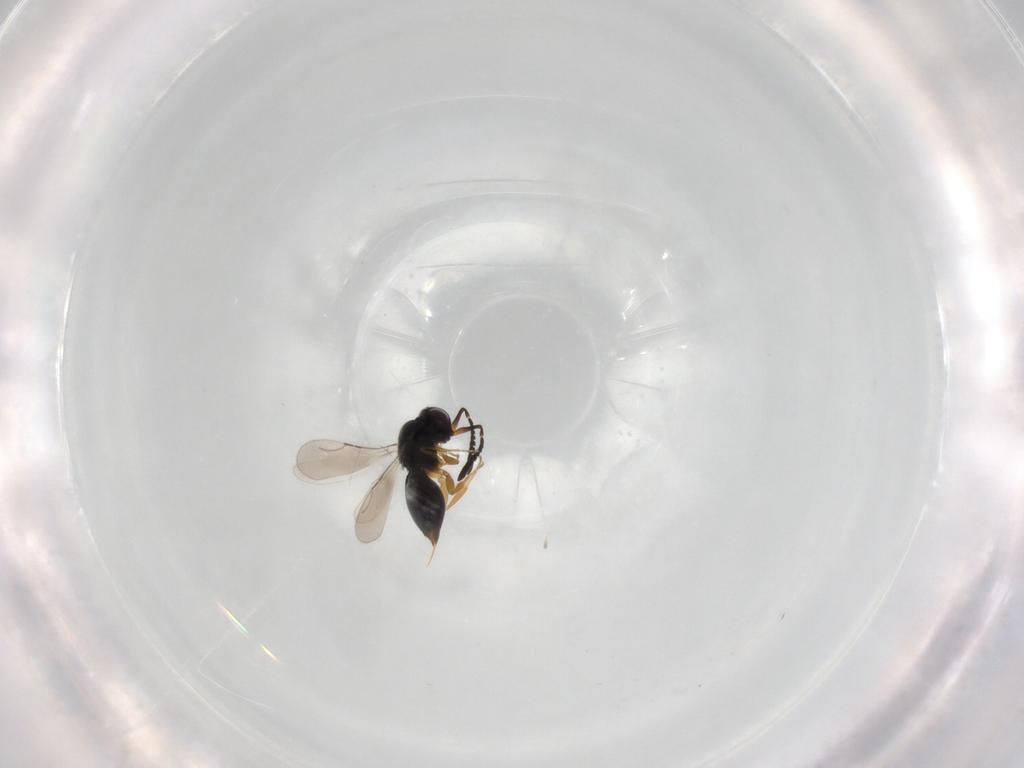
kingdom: Animalia
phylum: Arthropoda
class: Insecta
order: Hymenoptera
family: Ceraphronidae
